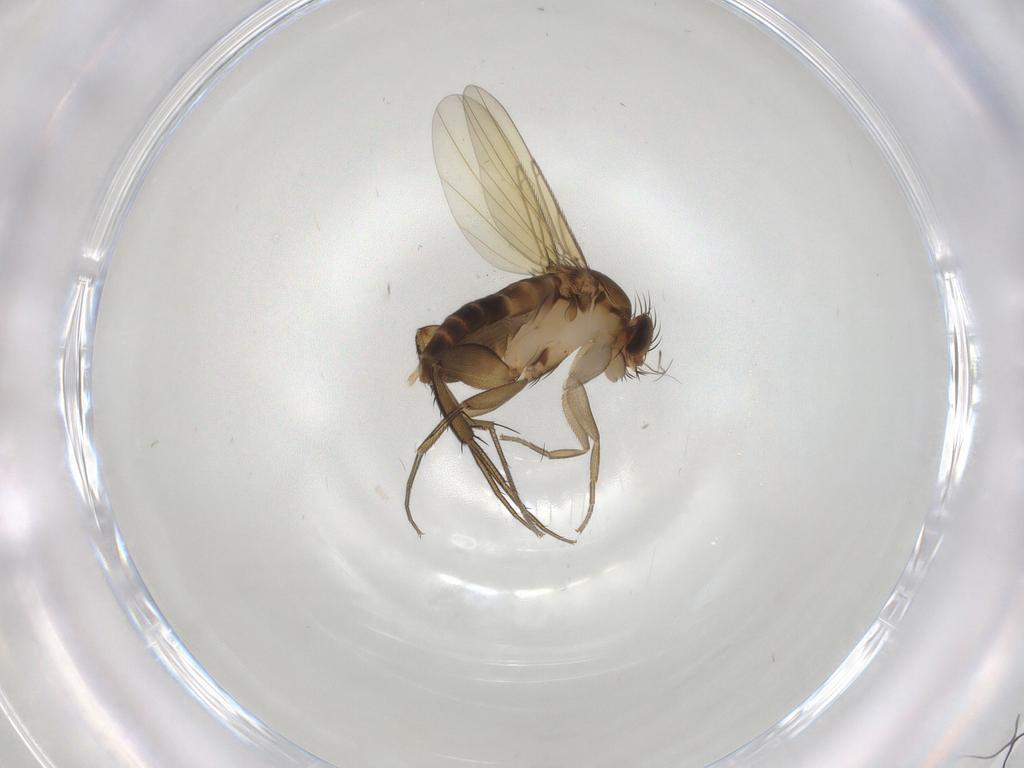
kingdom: Animalia
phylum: Arthropoda
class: Insecta
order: Diptera
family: Phoridae
